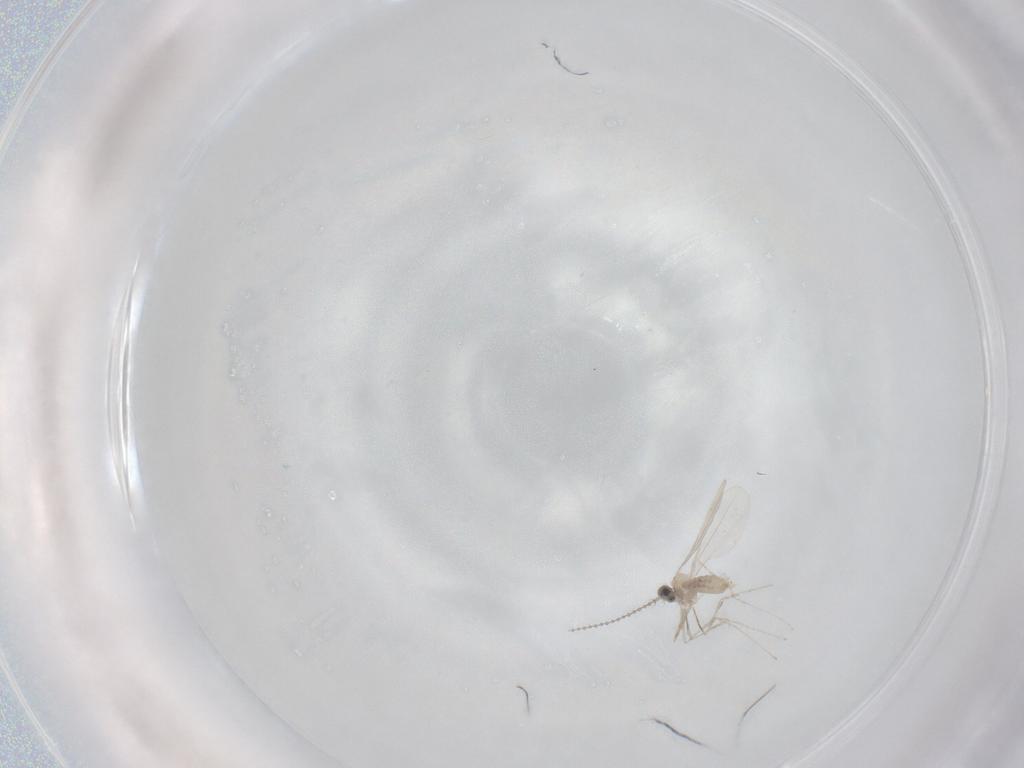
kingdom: Animalia
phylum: Arthropoda
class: Insecta
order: Diptera
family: Cecidomyiidae
